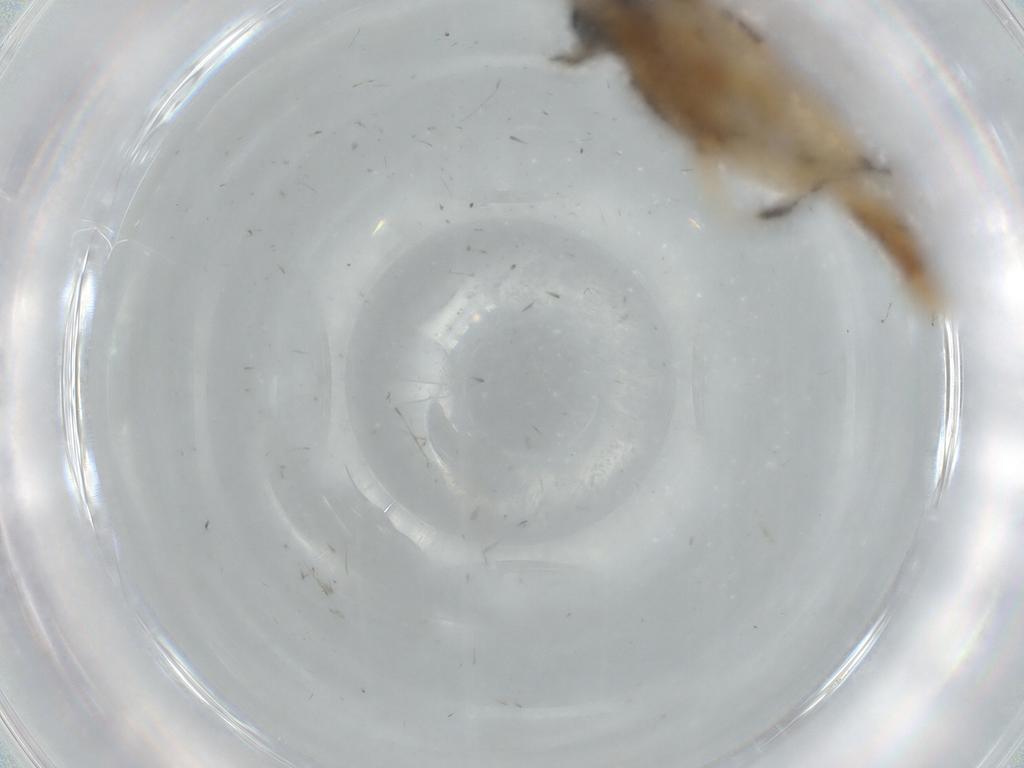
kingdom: Animalia
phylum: Arthropoda
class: Insecta
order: Lepidoptera
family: Tineidae
